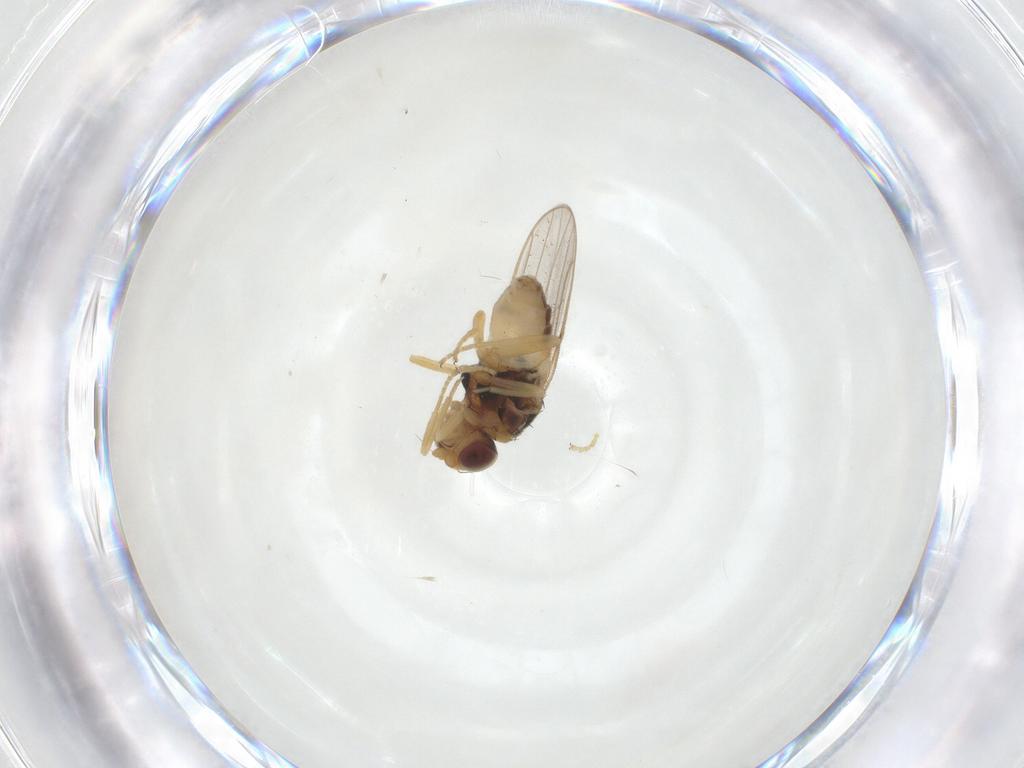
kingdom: Animalia
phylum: Arthropoda
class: Insecta
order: Diptera
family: Chloropidae
